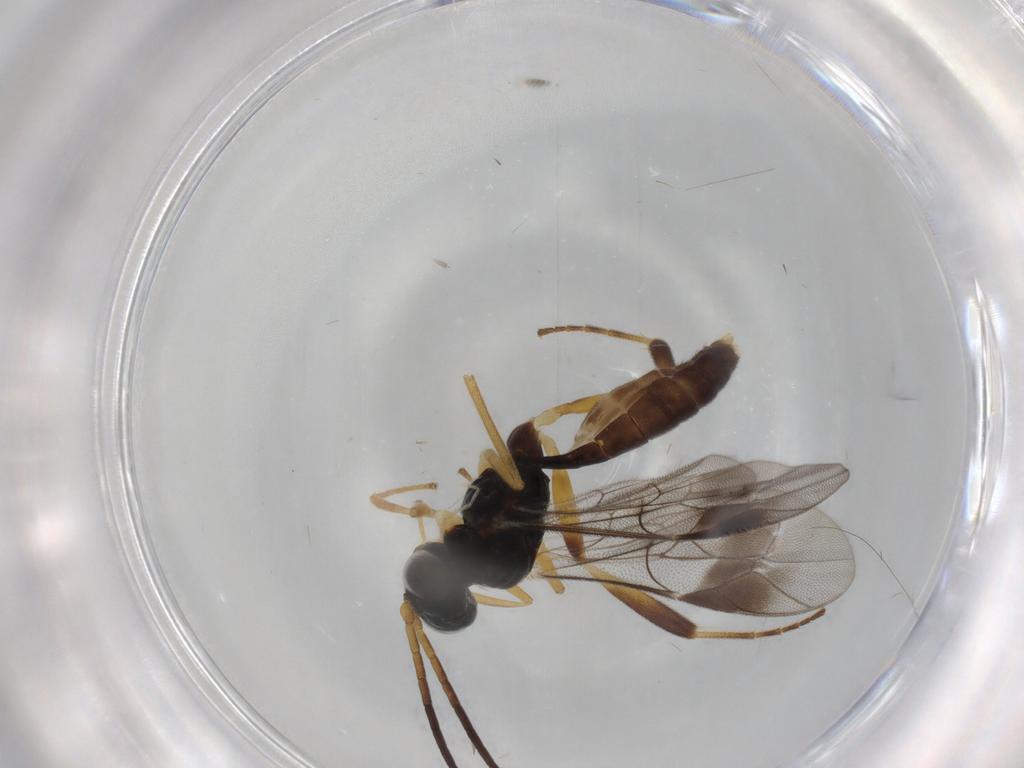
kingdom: Animalia
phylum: Arthropoda
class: Insecta
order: Hymenoptera
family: Ichneumonidae
